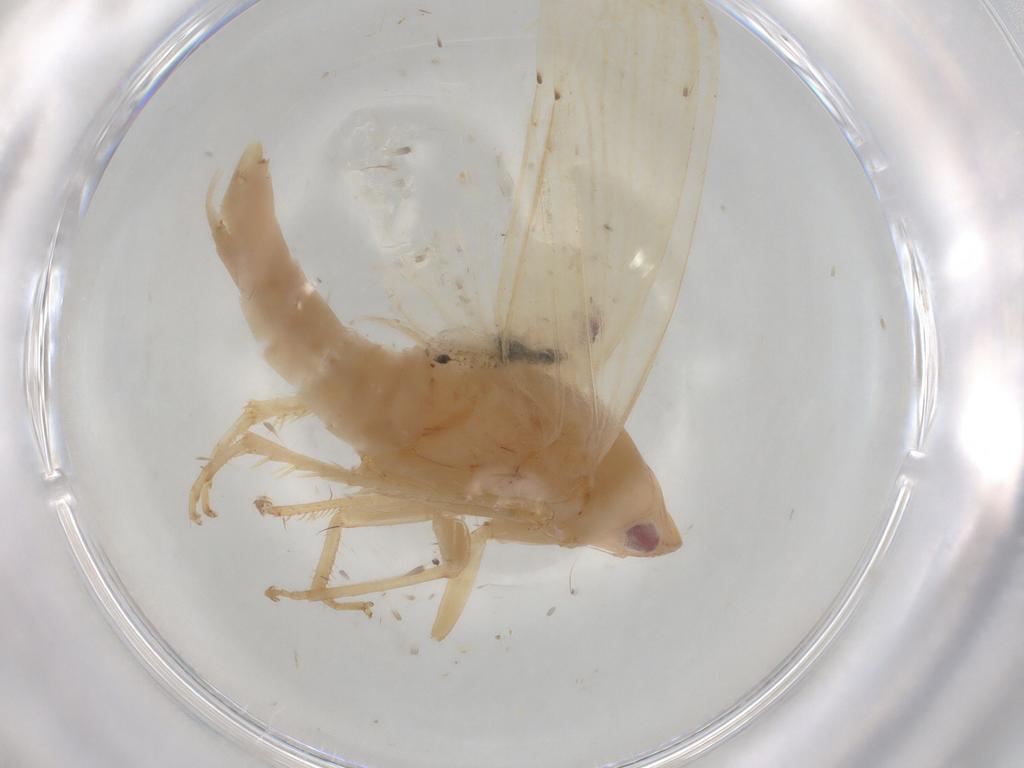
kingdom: Animalia
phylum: Arthropoda
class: Insecta
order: Hemiptera
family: Cicadellidae
